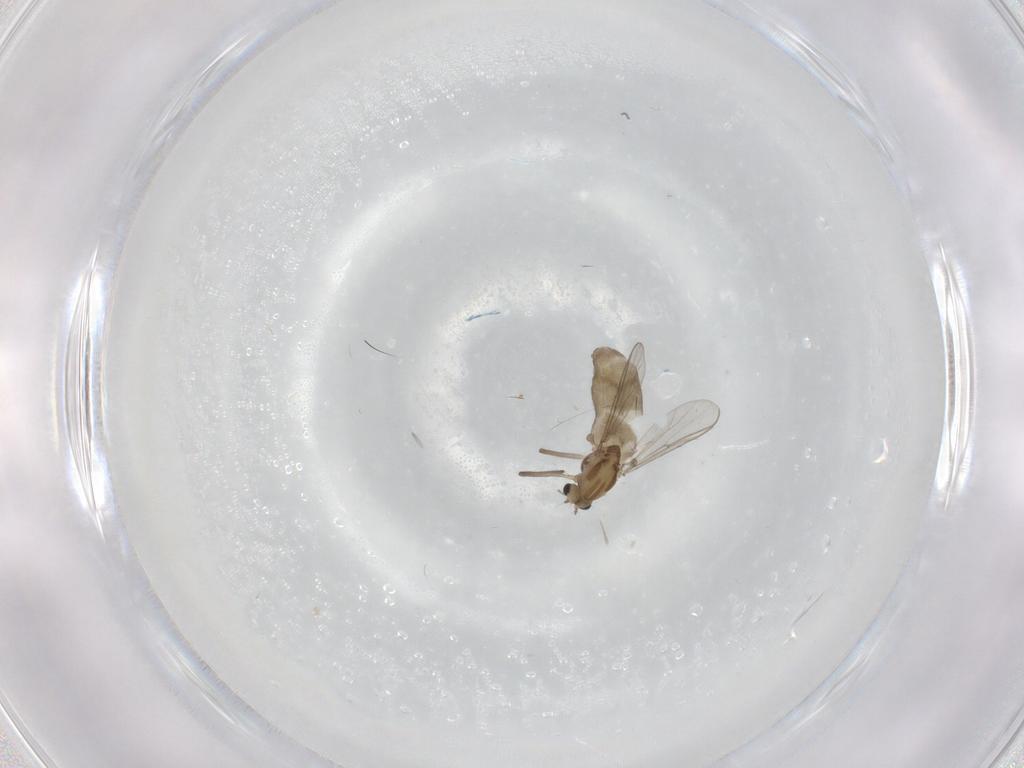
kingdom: Animalia
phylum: Arthropoda
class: Insecta
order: Diptera
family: Chironomidae
